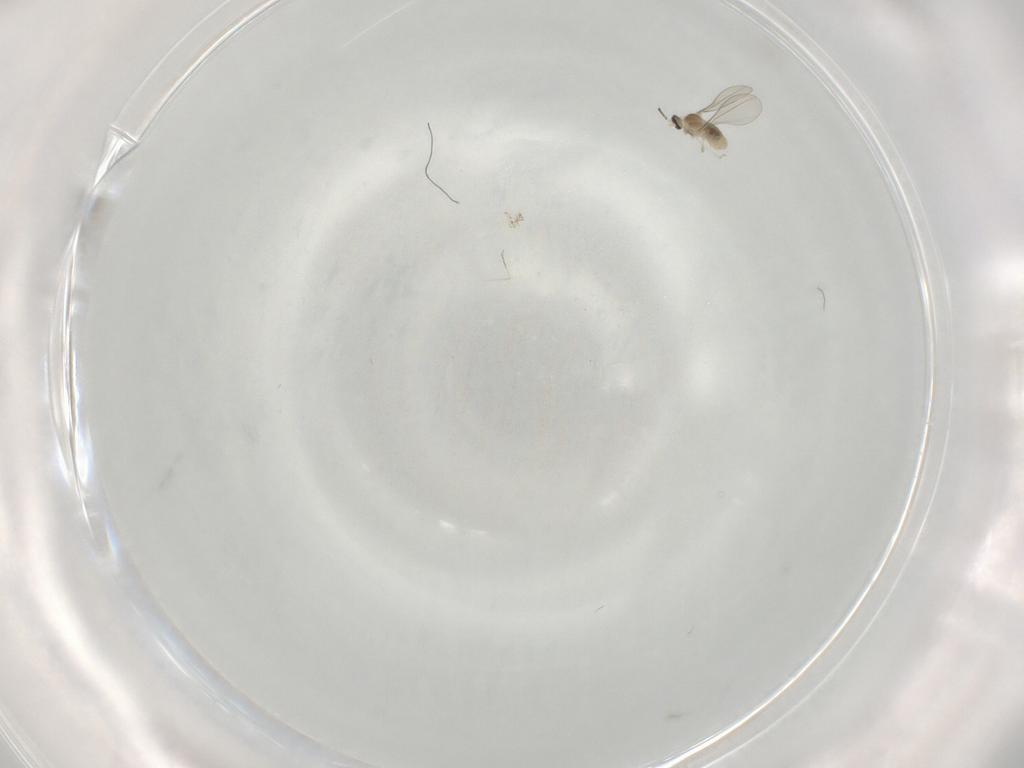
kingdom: Animalia
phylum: Arthropoda
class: Insecta
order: Diptera
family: Cecidomyiidae
